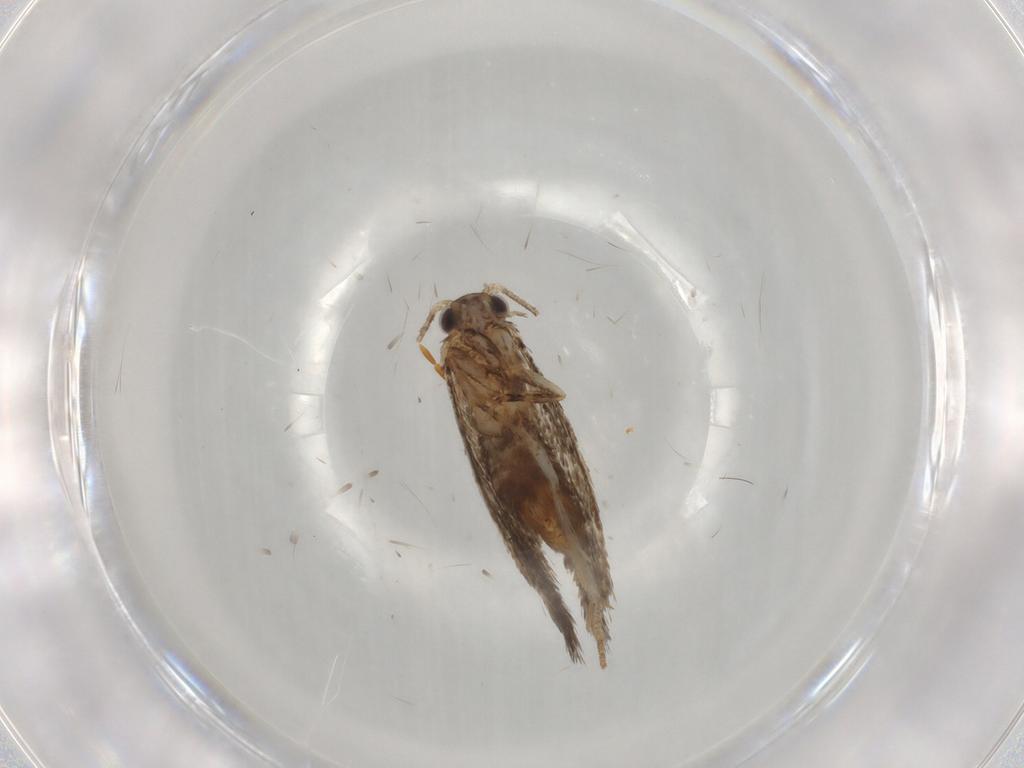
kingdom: Animalia
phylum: Arthropoda
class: Insecta
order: Lepidoptera
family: Tineidae
